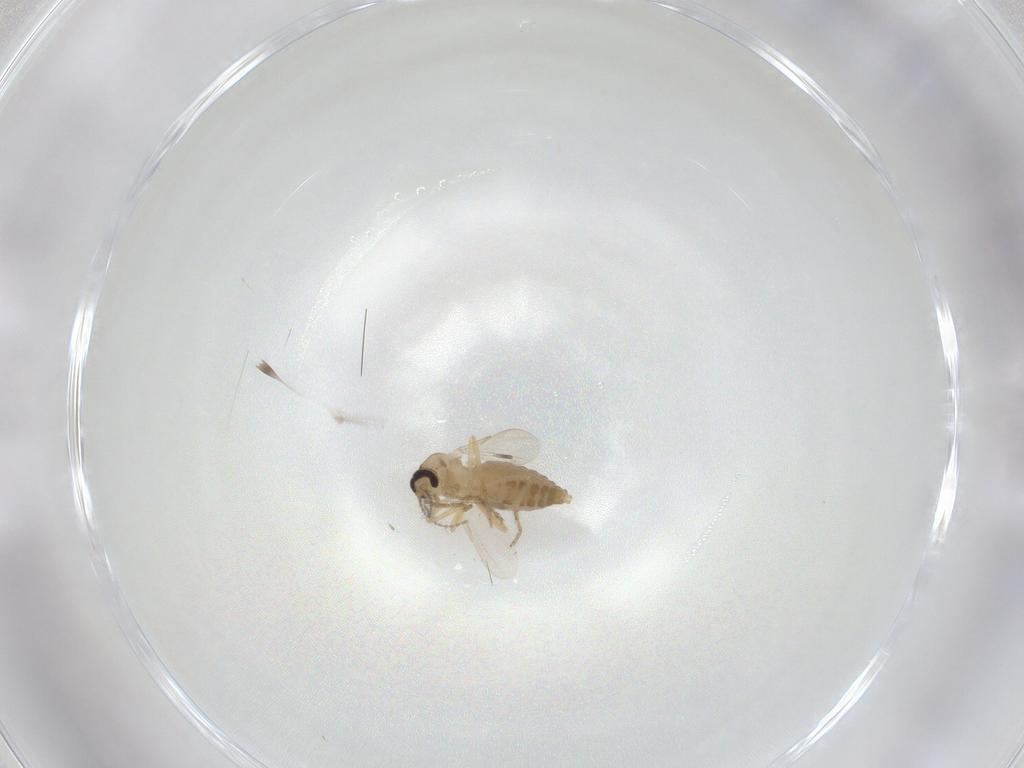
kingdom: Animalia
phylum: Arthropoda
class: Insecta
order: Diptera
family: Ceratopogonidae
